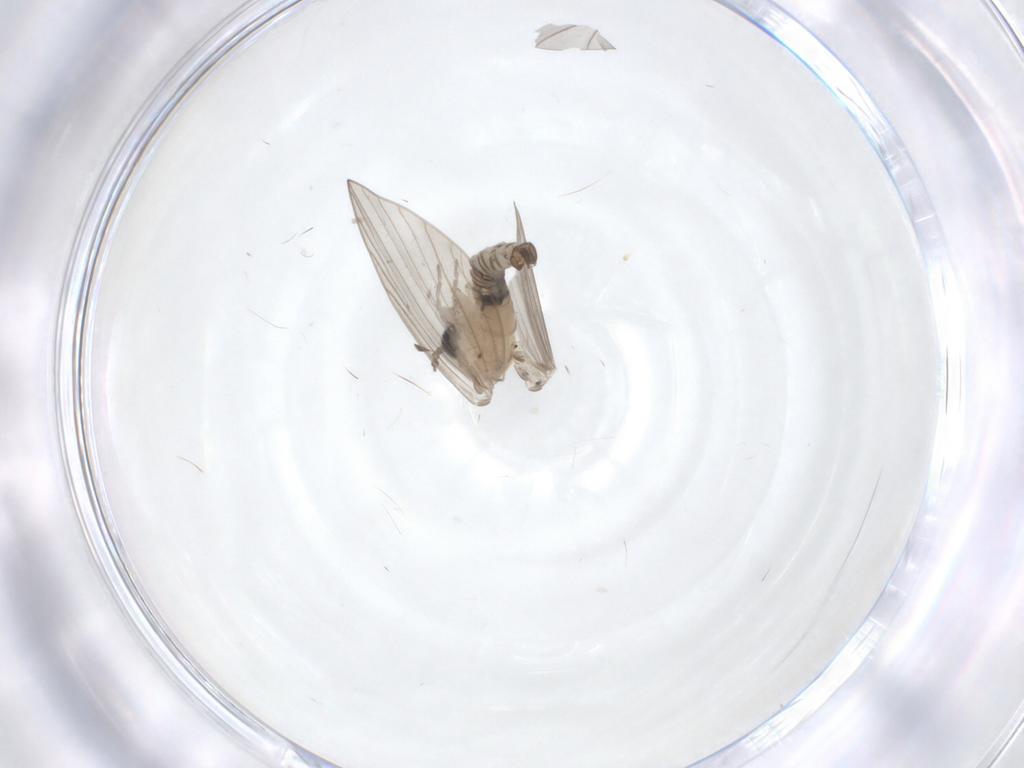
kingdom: Animalia
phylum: Arthropoda
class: Insecta
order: Diptera
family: Psychodidae
